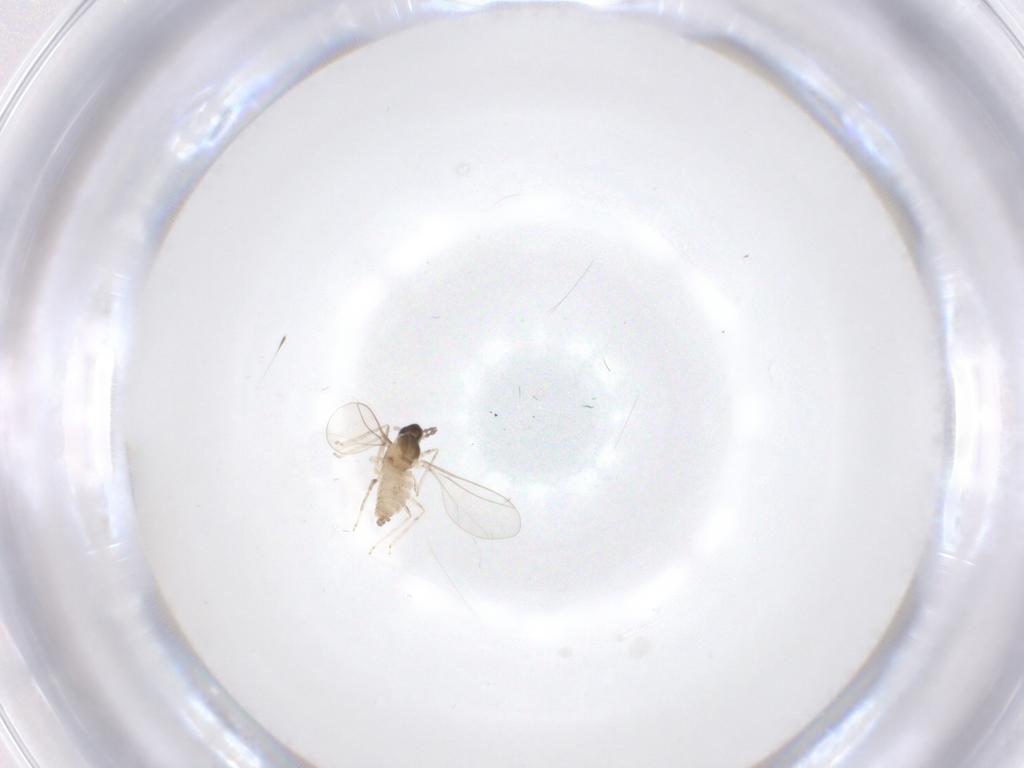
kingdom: Animalia
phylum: Arthropoda
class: Insecta
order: Diptera
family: Cecidomyiidae
